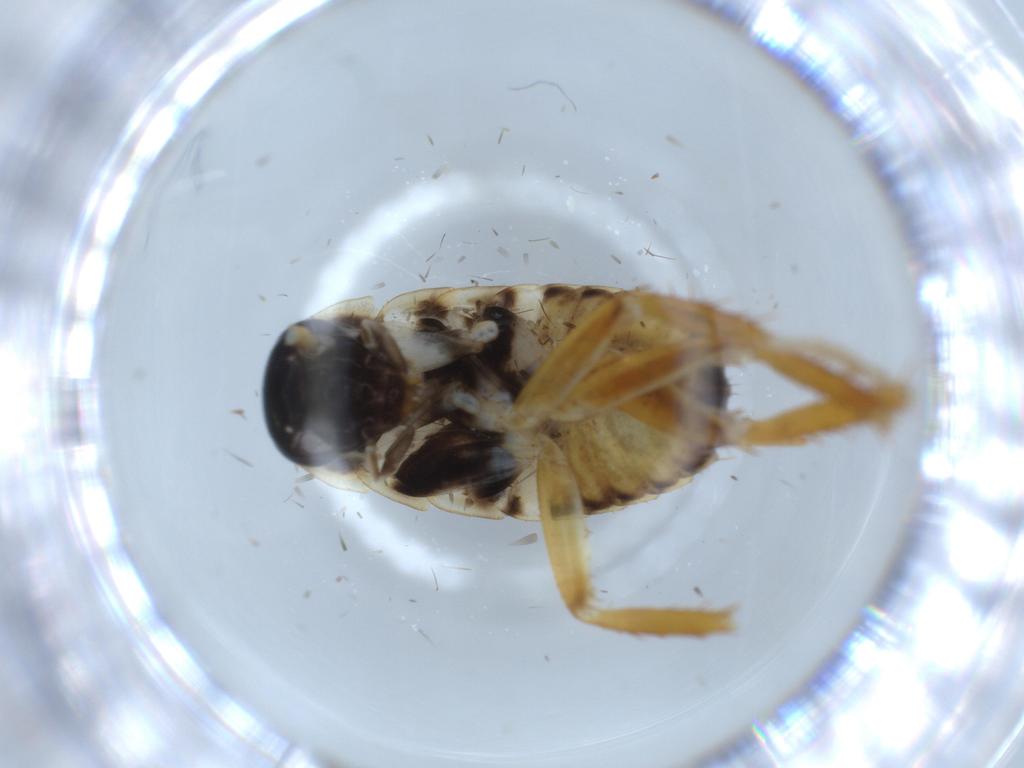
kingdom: Animalia
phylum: Arthropoda
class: Insecta
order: Blattodea
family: Ectobiidae
